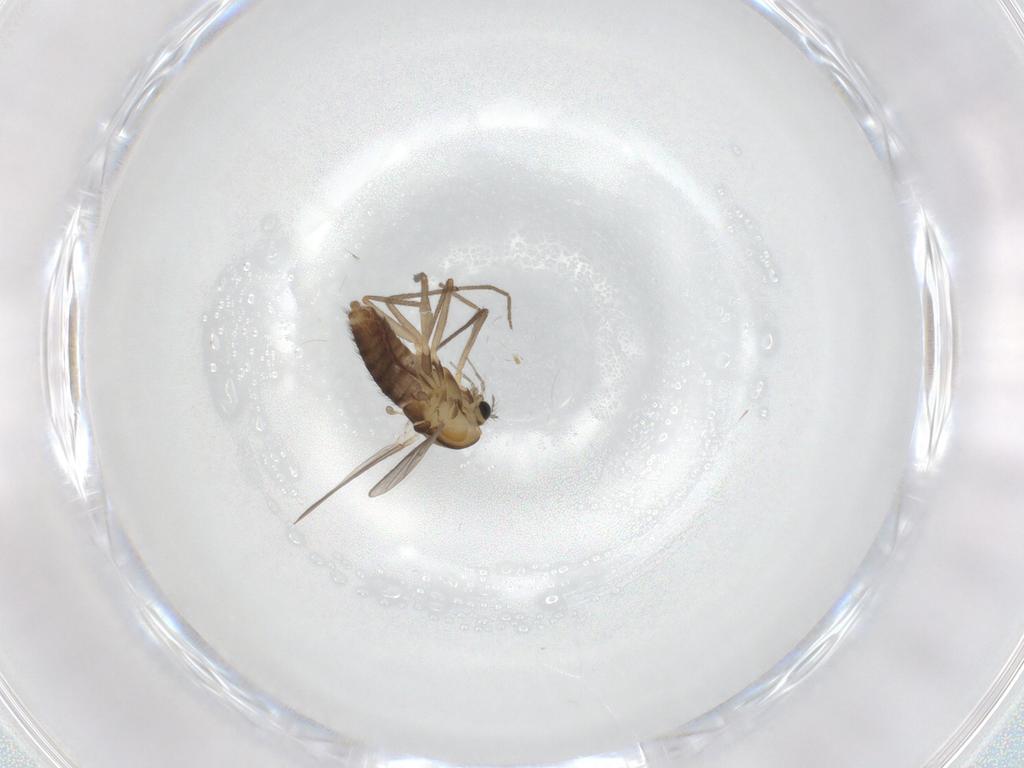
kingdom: Animalia
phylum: Arthropoda
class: Insecta
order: Diptera
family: Chironomidae
